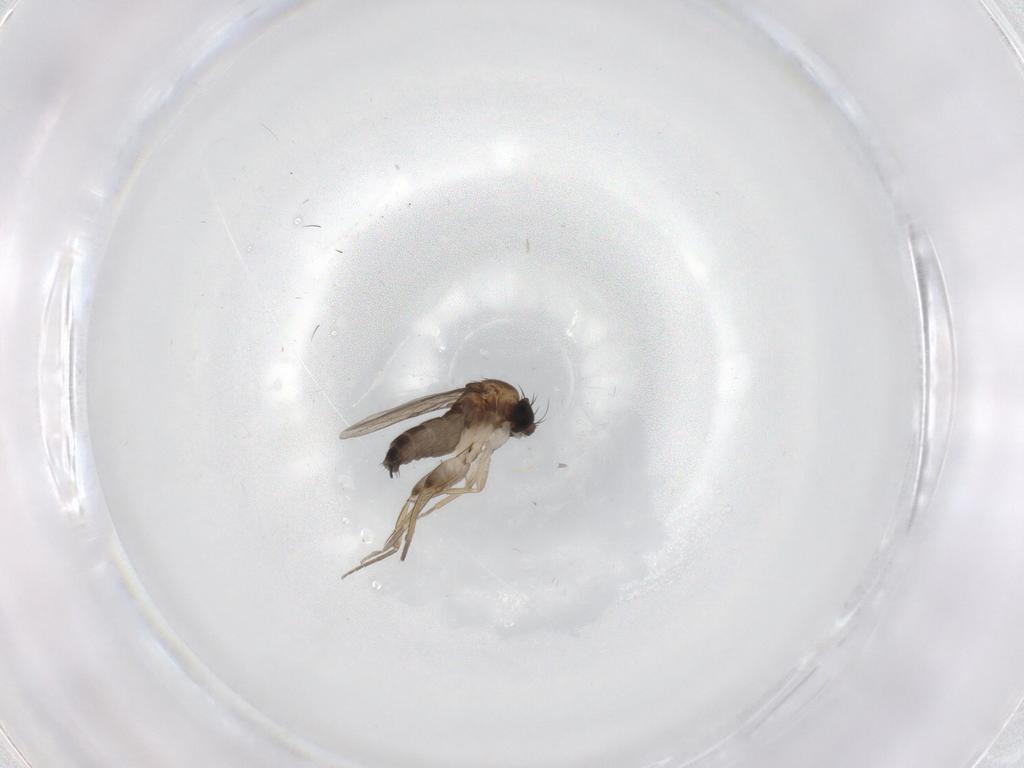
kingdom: Animalia
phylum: Arthropoda
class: Insecta
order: Diptera
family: Phoridae
